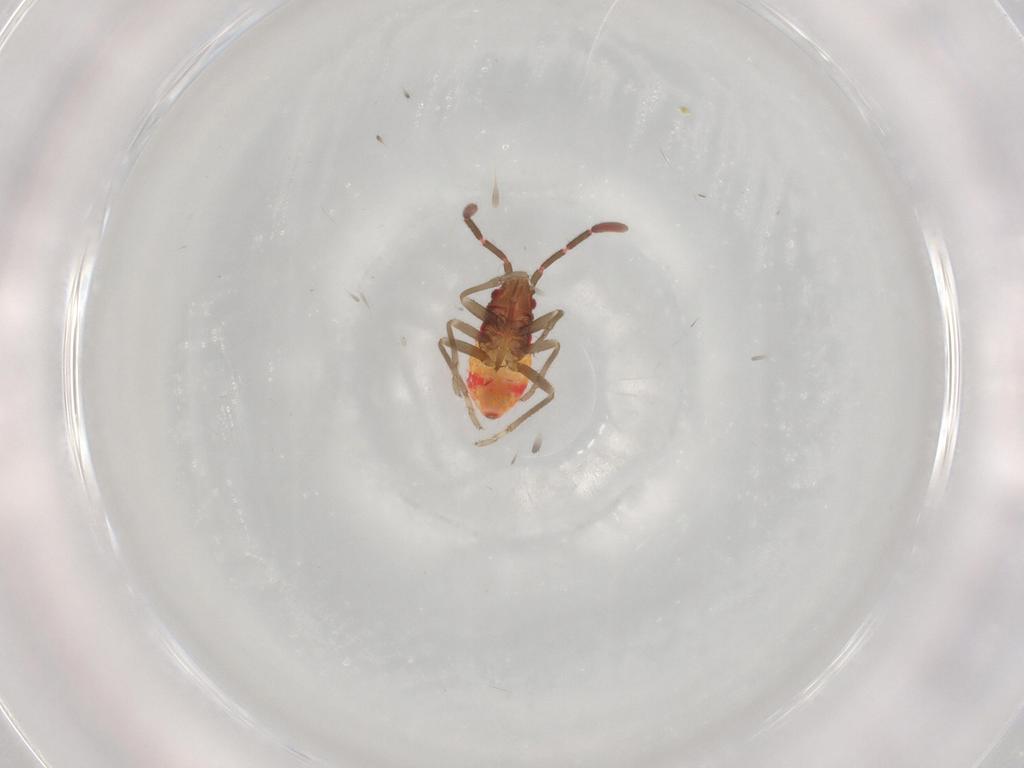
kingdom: Animalia
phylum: Arthropoda
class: Insecta
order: Hemiptera
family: Rhyparochromidae
